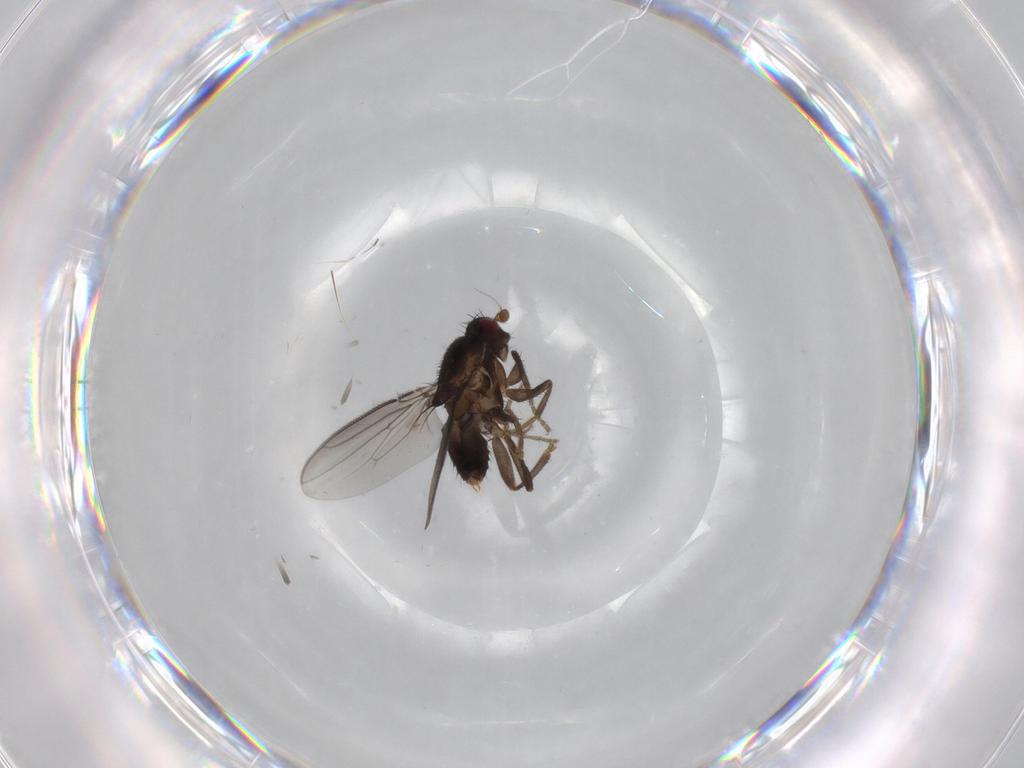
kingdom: Animalia
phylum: Arthropoda
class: Insecta
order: Diptera
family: Sphaeroceridae
